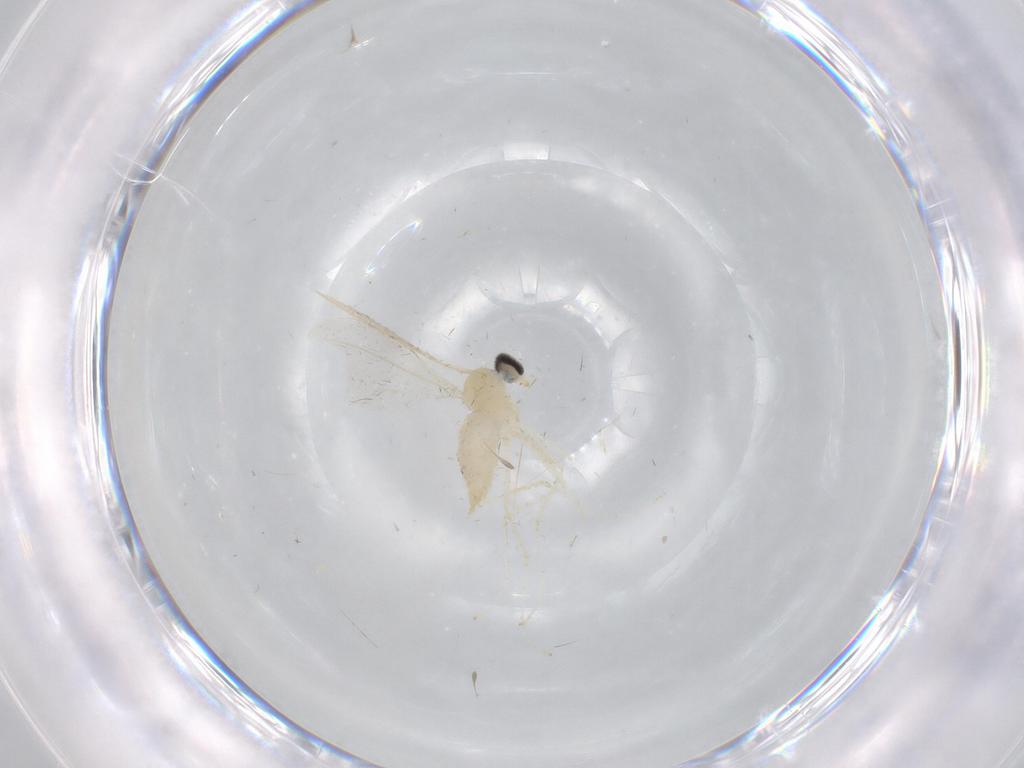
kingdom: Animalia
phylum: Arthropoda
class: Insecta
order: Diptera
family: Cecidomyiidae
